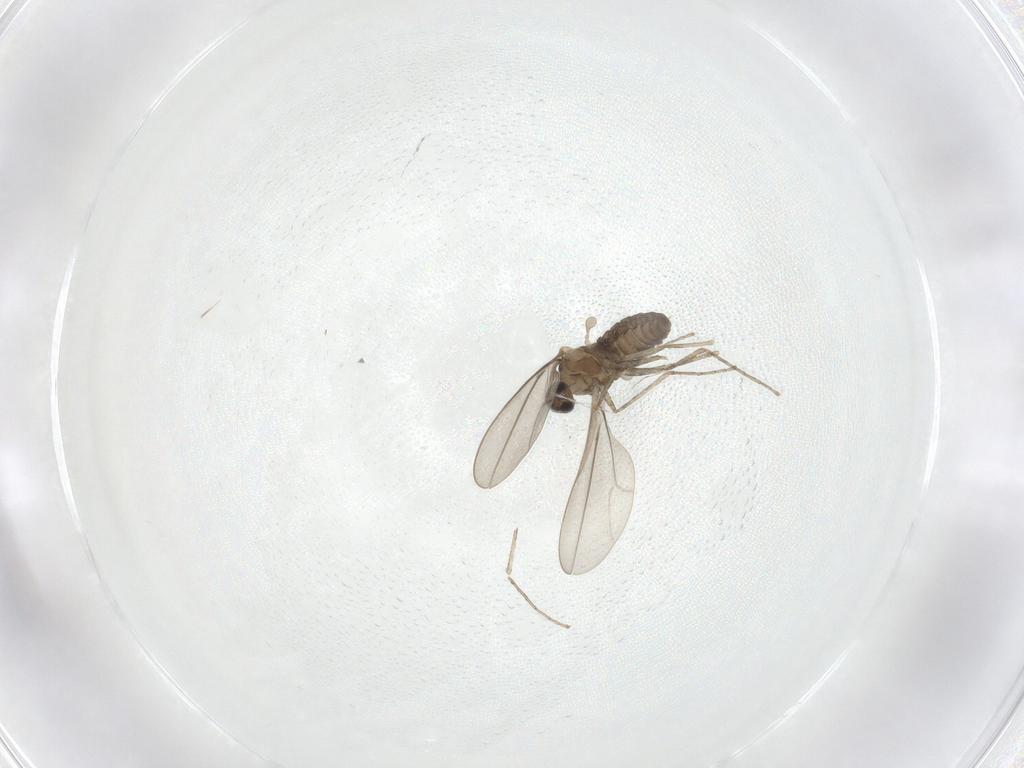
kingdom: Animalia
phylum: Arthropoda
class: Insecta
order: Diptera
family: Cecidomyiidae
